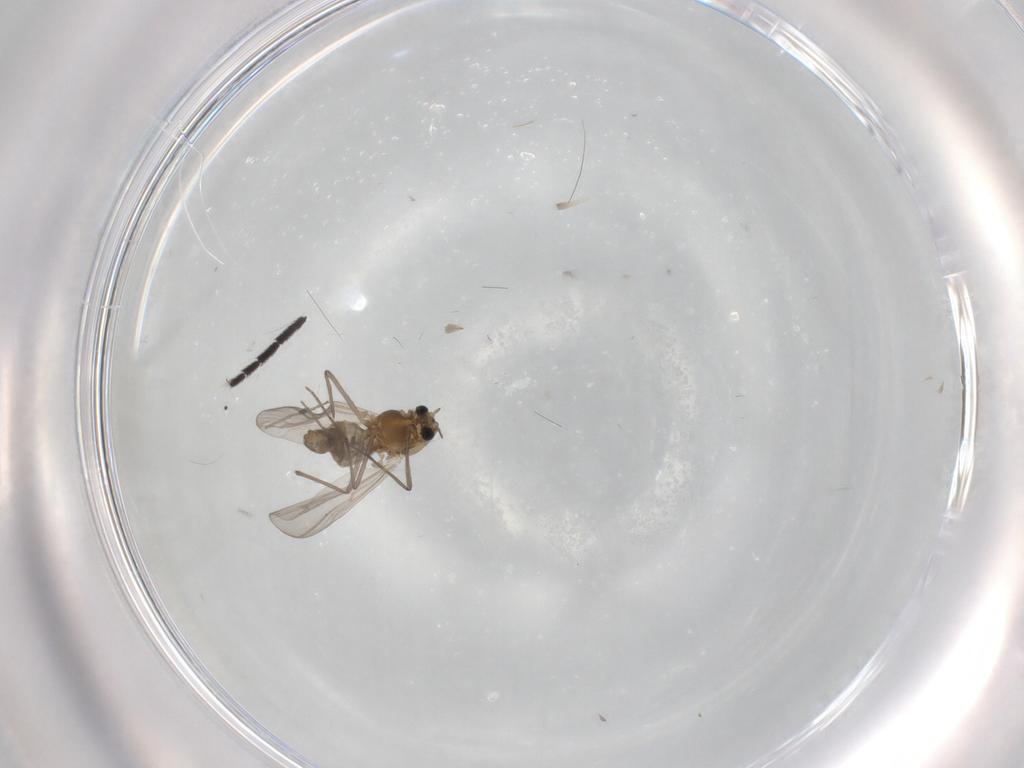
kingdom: Animalia
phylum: Arthropoda
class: Insecta
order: Diptera
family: Chironomidae
